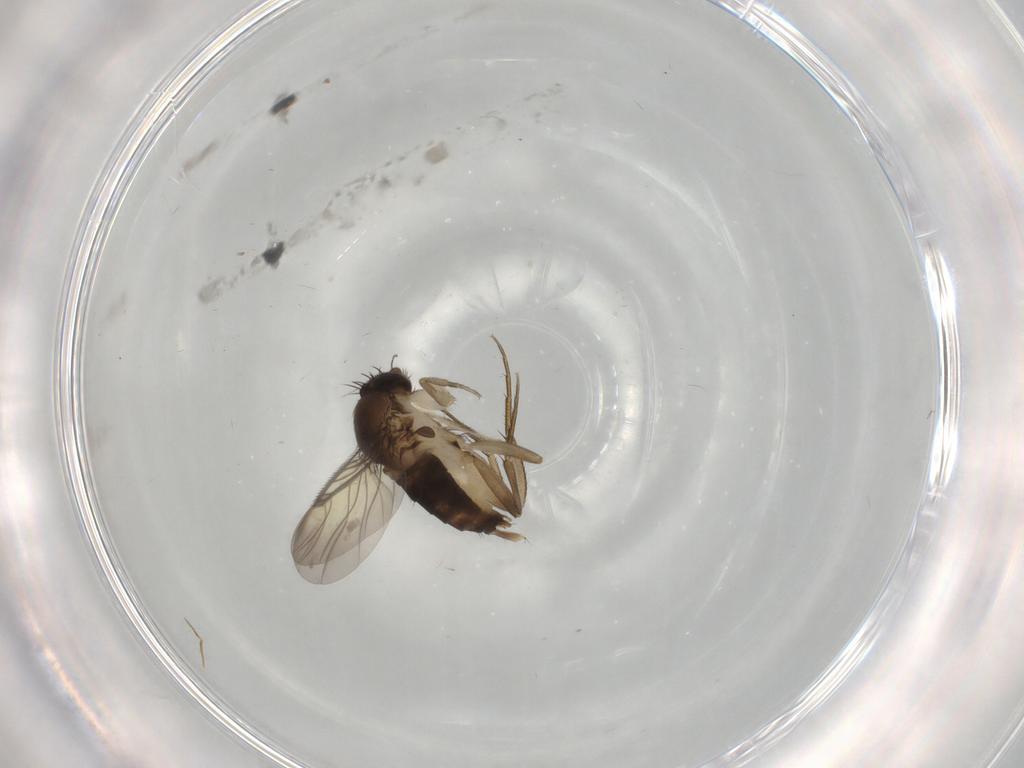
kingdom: Animalia
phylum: Arthropoda
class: Insecta
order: Diptera
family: Phoridae
